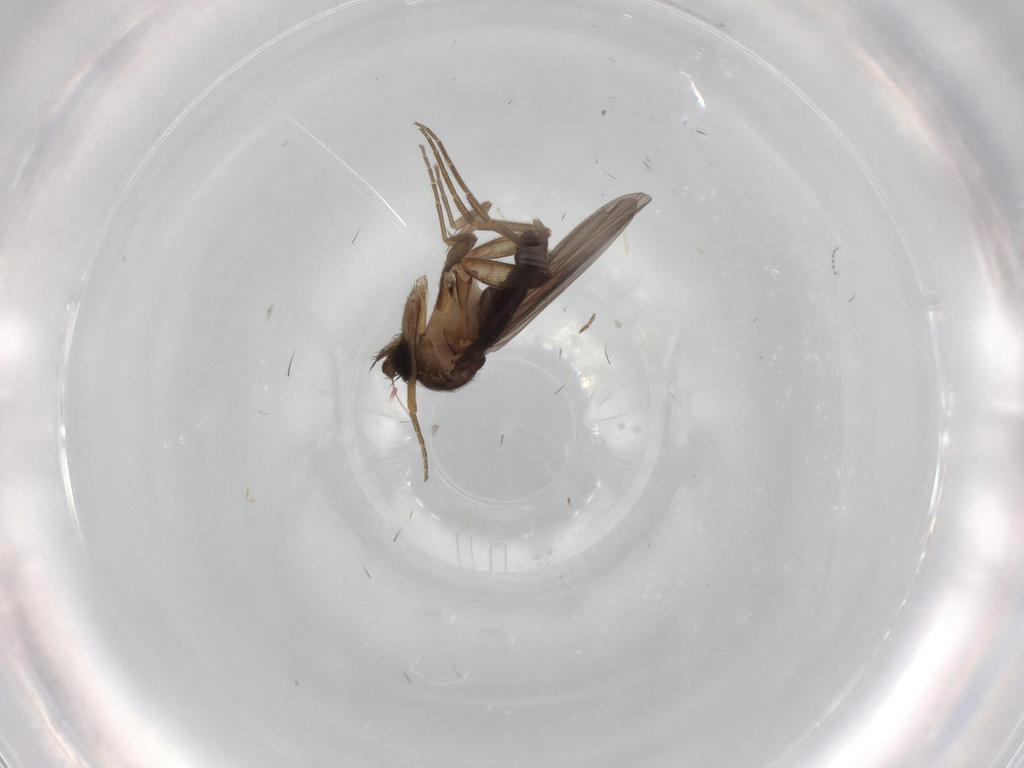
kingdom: Animalia
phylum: Arthropoda
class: Insecta
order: Diptera
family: Cecidomyiidae
